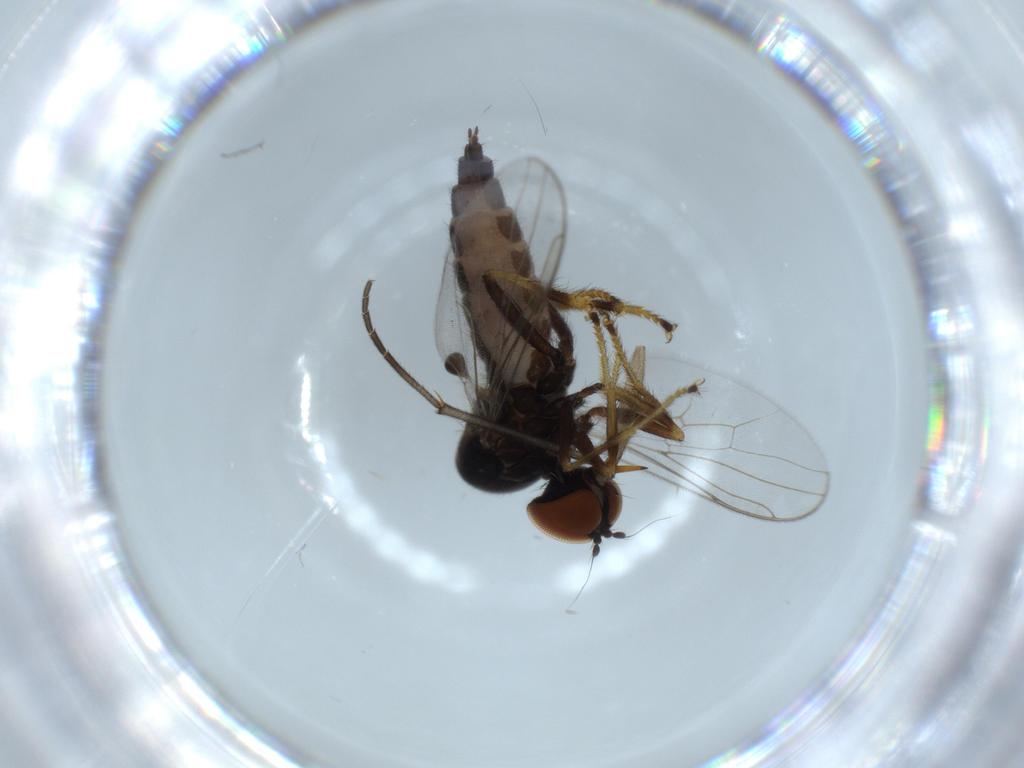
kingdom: Animalia
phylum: Arthropoda
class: Insecta
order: Diptera
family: Hybotidae
